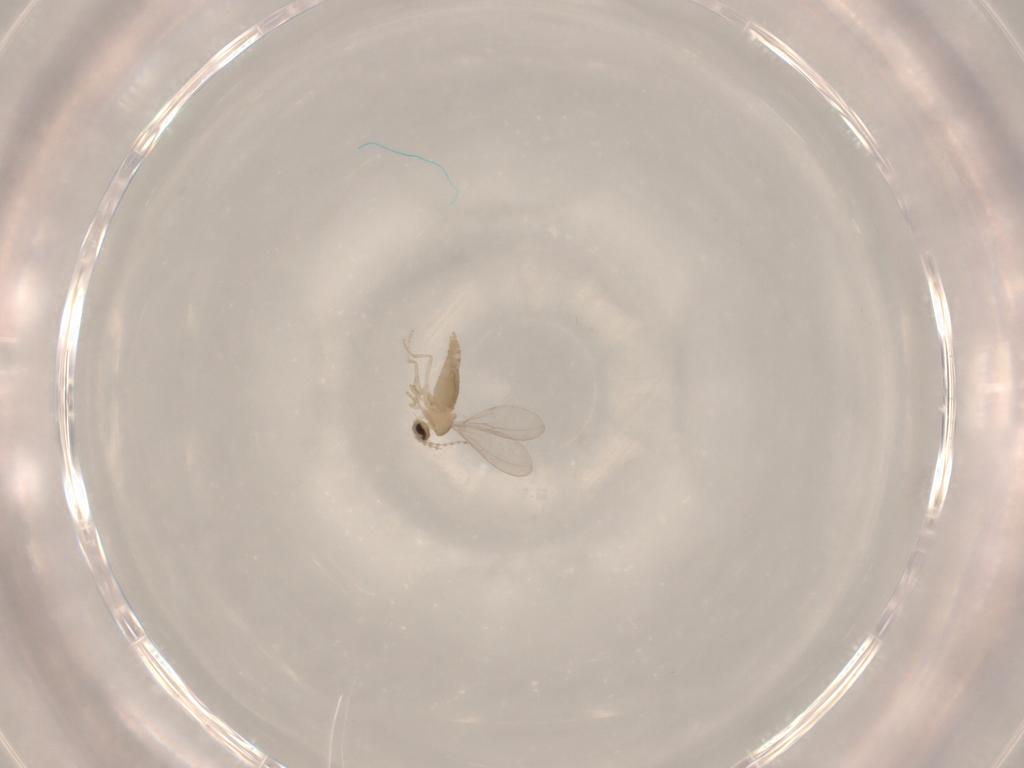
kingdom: Animalia
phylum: Arthropoda
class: Insecta
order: Diptera
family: Cecidomyiidae
